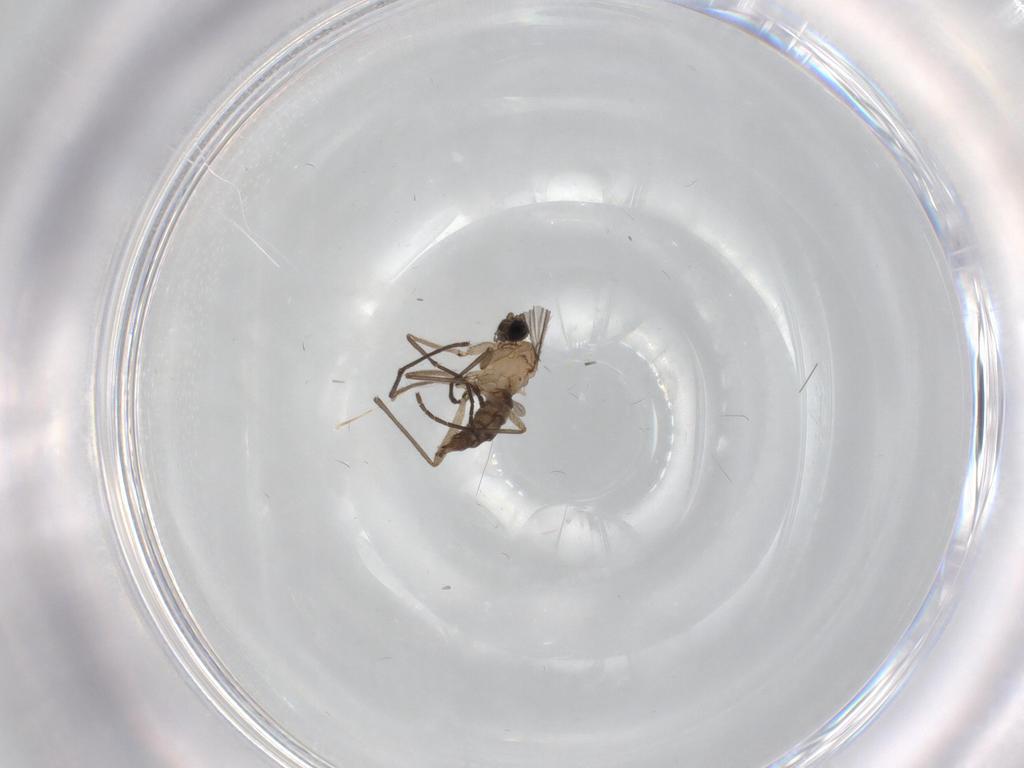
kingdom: Animalia
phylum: Arthropoda
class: Insecta
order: Diptera
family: Sciaridae
